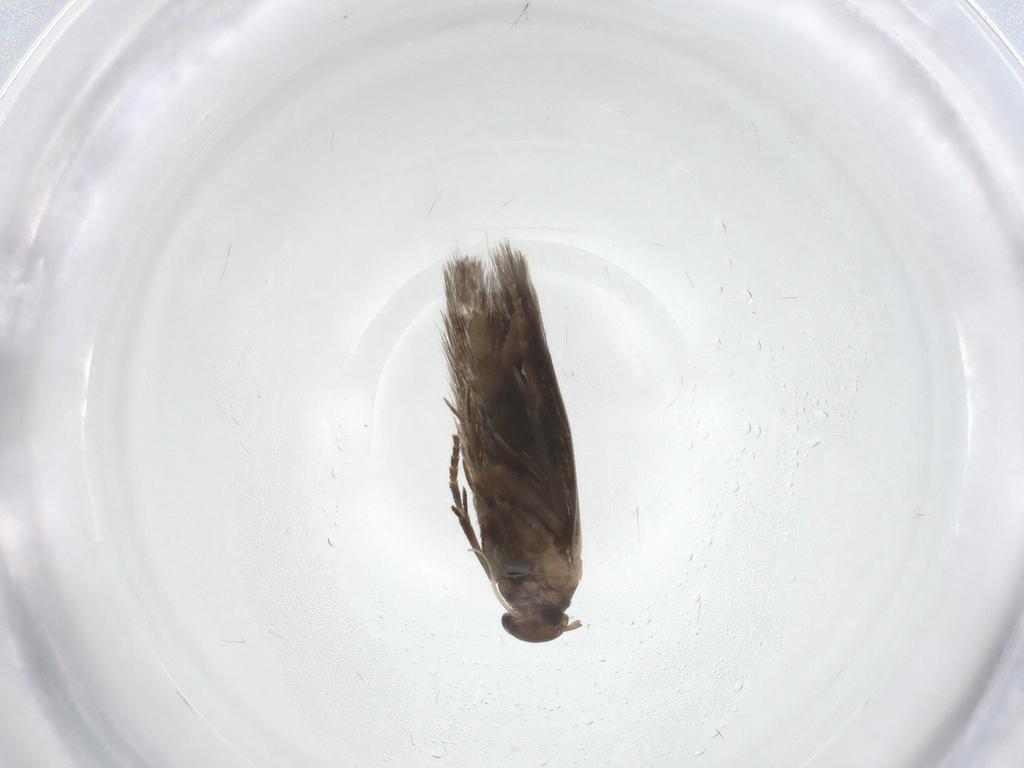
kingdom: Animalia
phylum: Arthropoda
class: Insecta
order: Lepidoptera
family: Elachistidae
